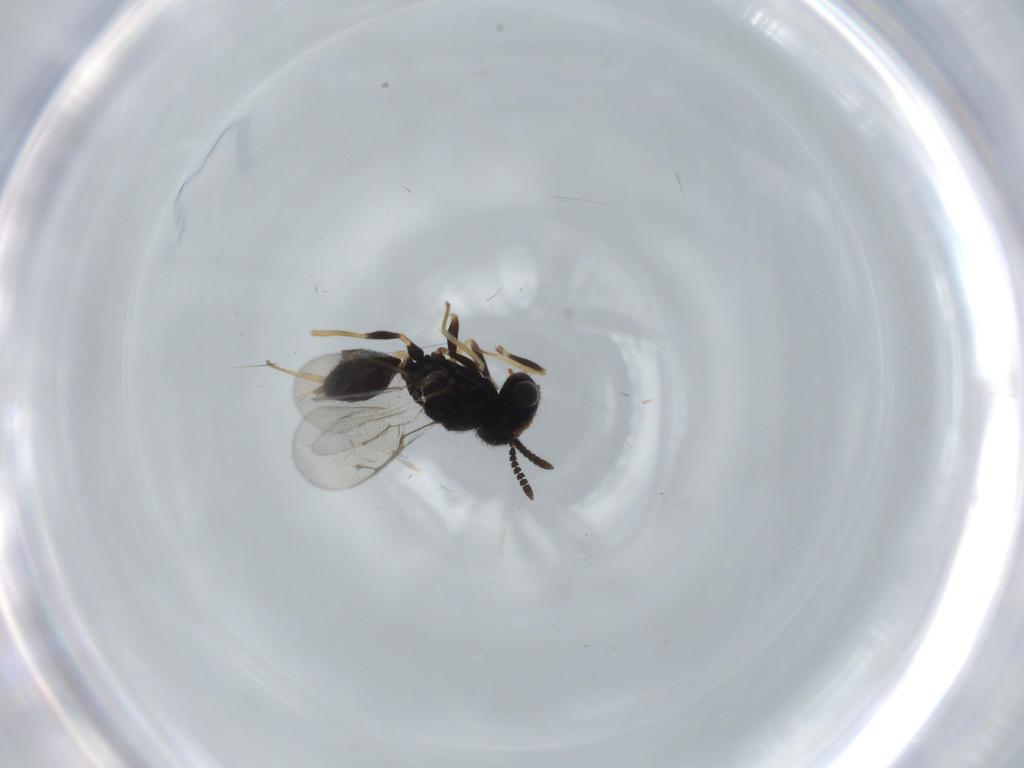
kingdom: Animalia
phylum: Arthropoda
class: Insecta
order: Hymenoptera
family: Pteromalidae
